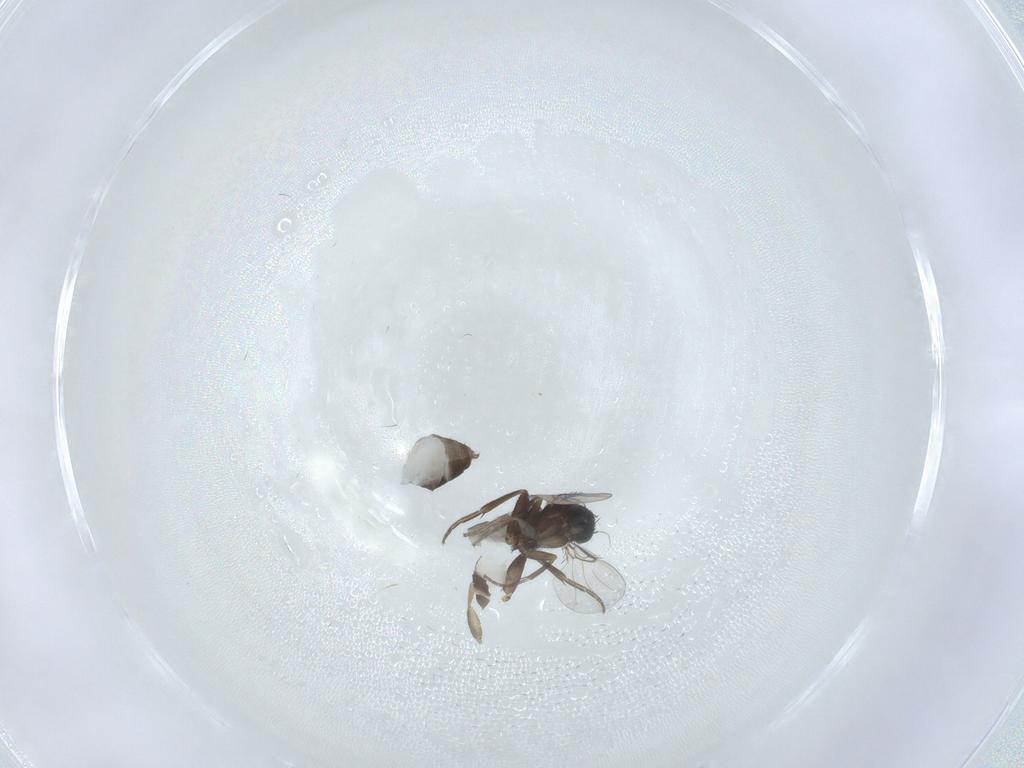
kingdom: Animalia
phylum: Arthropoda
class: Insecta
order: Diptera
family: Phoridae
